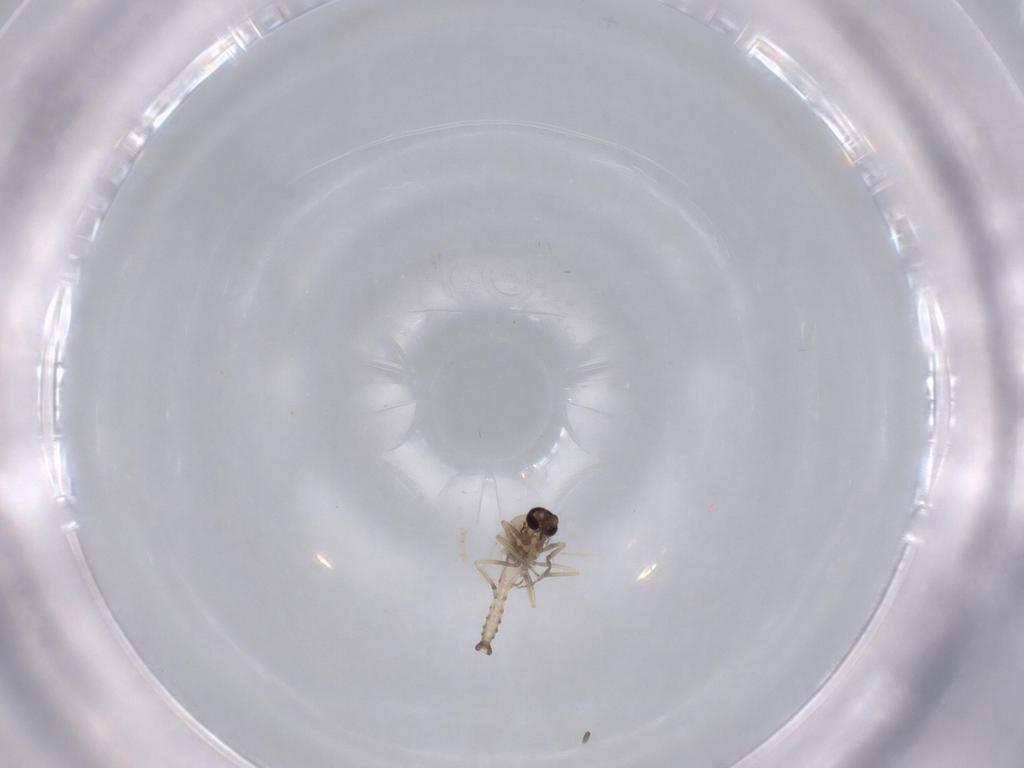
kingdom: Animalia
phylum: Arthropoda
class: Insecta
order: Diptera
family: Ceratopogonidae
